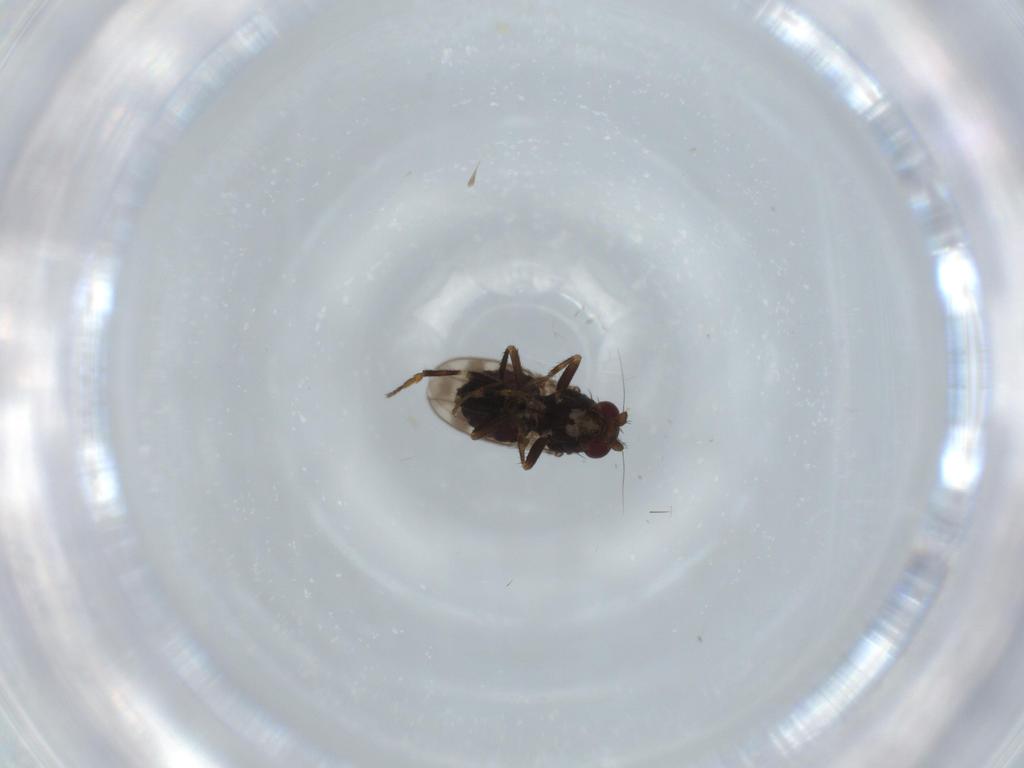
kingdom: Animalia
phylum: Arthropoda
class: Insecta
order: Diptera
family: Sphaeroceridae
